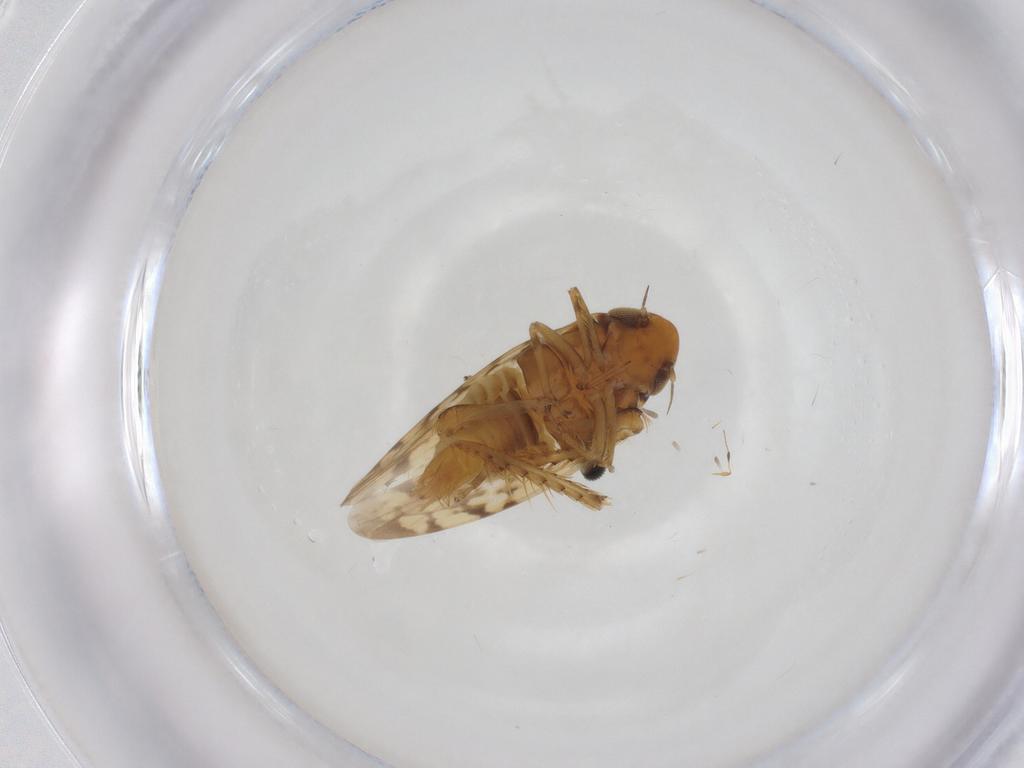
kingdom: Animalia
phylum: Arthropoda
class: Insecta
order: Hemiptera
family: Cicadellidae
